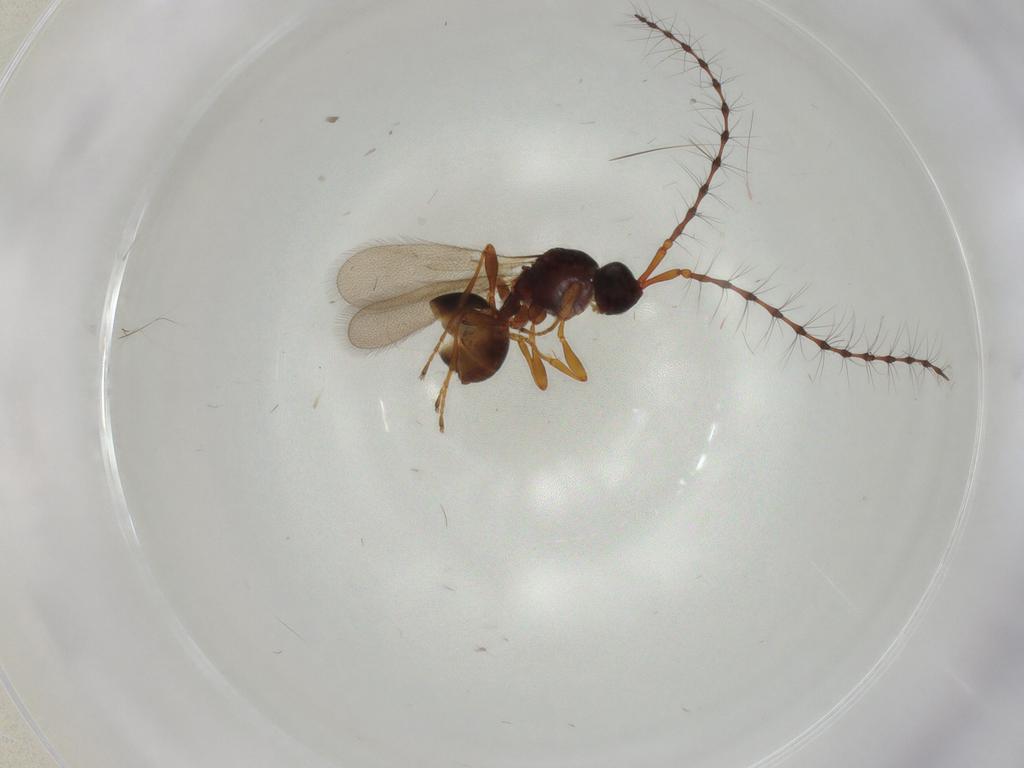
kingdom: Animalia
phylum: Arthropoda
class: Insecta
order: Hymenoptera
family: Diapriidae
